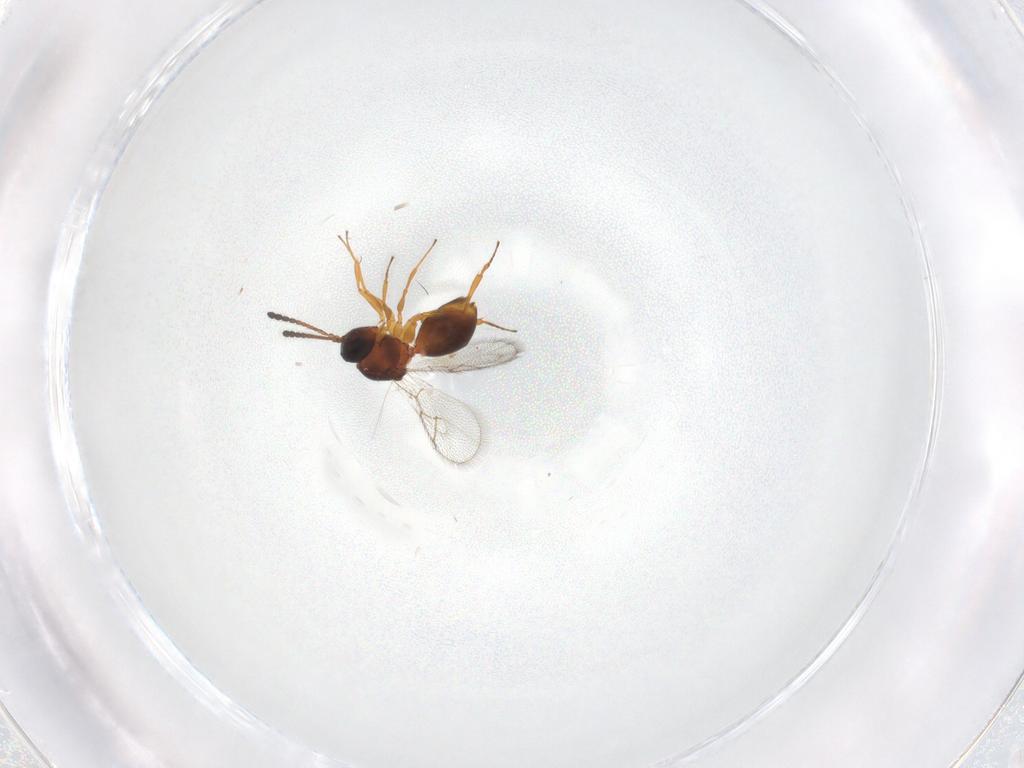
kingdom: Animalia
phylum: Arthropoda
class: Insecta
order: Hymenoptera
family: Figitidae
